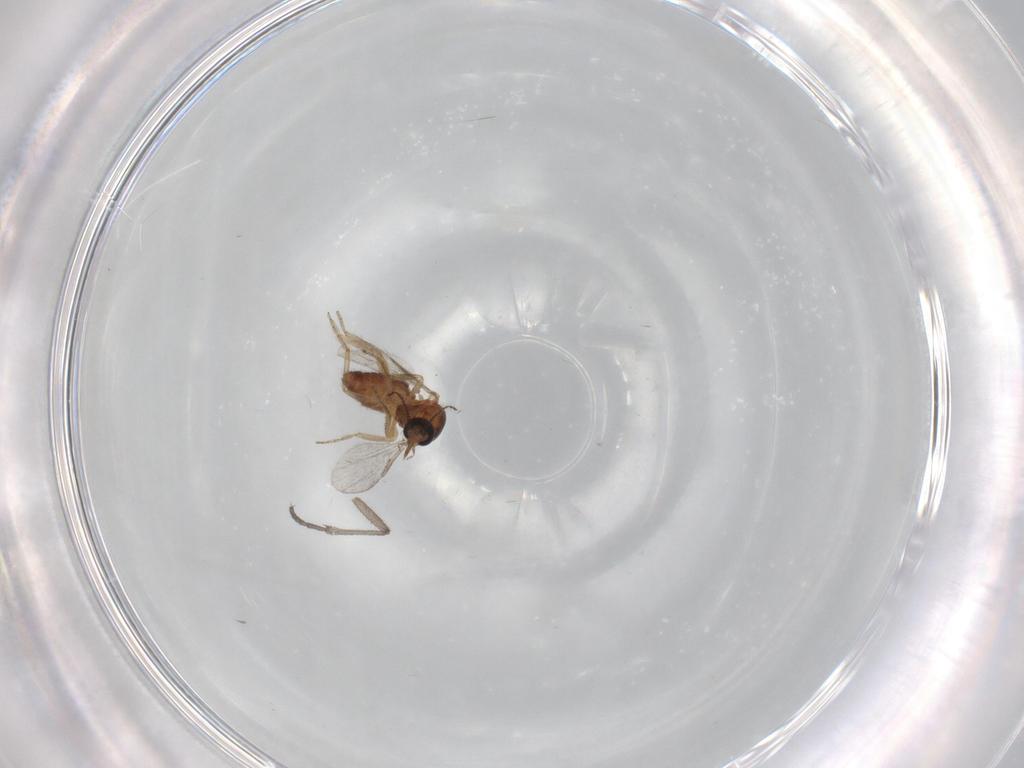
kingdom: Animalia
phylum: Arthropoda
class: Insecta
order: Diptera
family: Sciaridae
